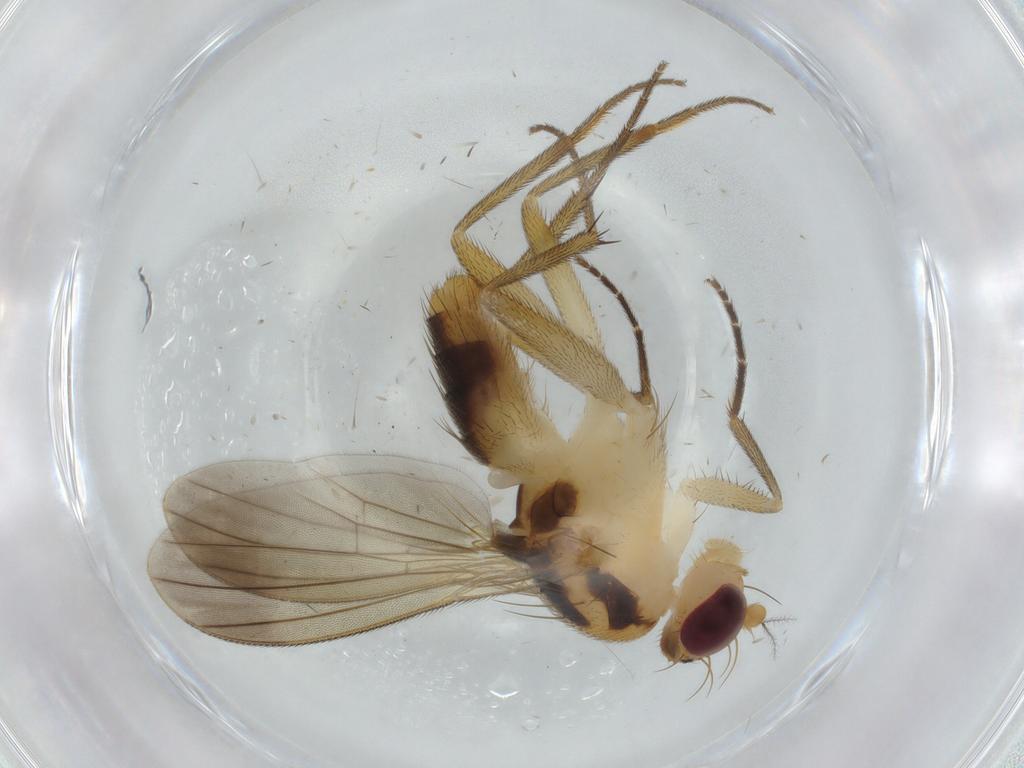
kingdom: Animalia
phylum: Arthropoda
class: Insecta
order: Diptera
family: Clusiidae
